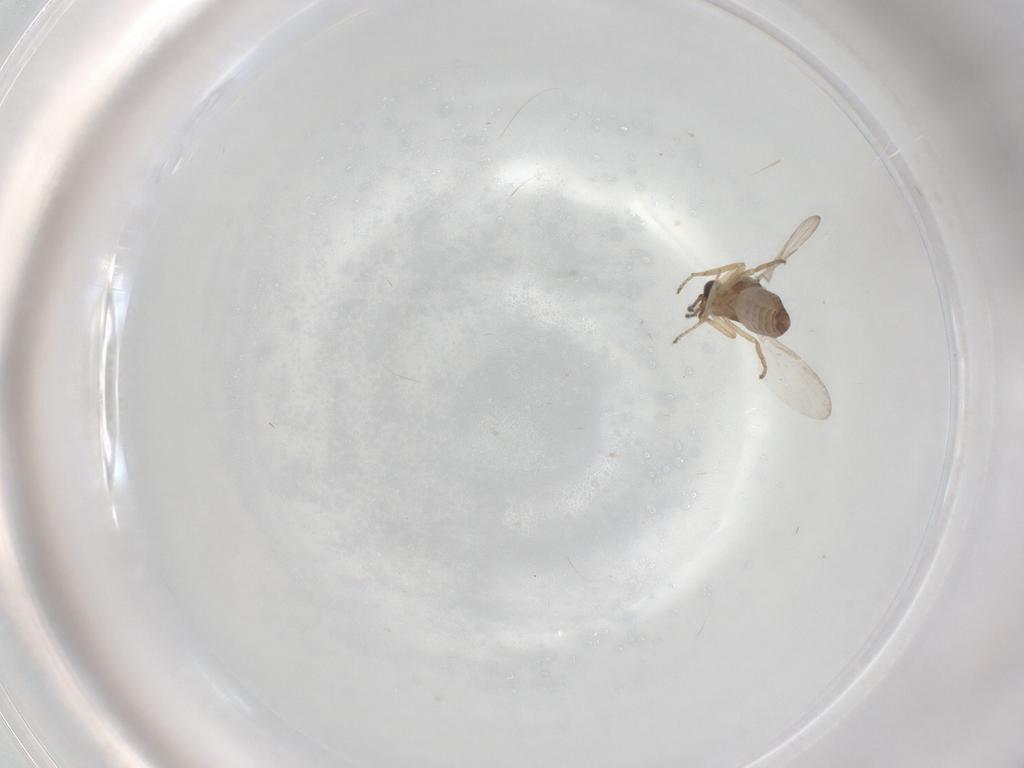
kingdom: Animalia
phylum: Arthropoda
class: Insecta
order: Diptera
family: Ceratopogonidae
